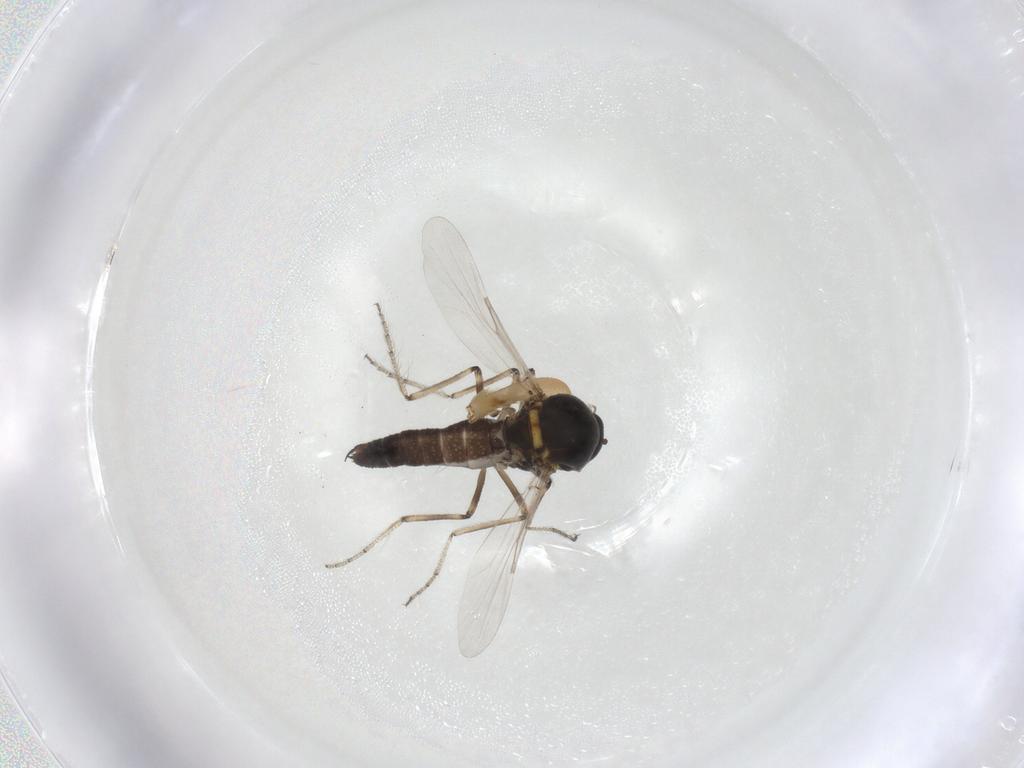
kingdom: Animalia
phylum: Arthropoda
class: Insecta
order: Diptera
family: Ceratopogonidae
